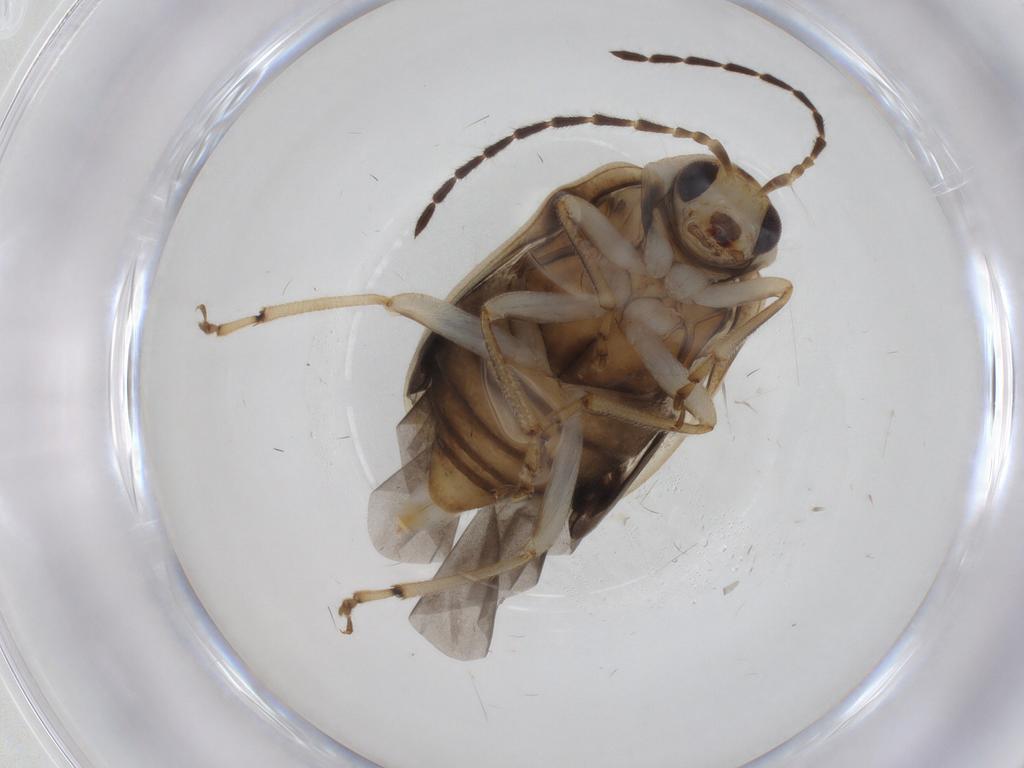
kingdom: Animalia
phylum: Arthropoda
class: Insecta
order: Coleoptera
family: Chrysomelidae
